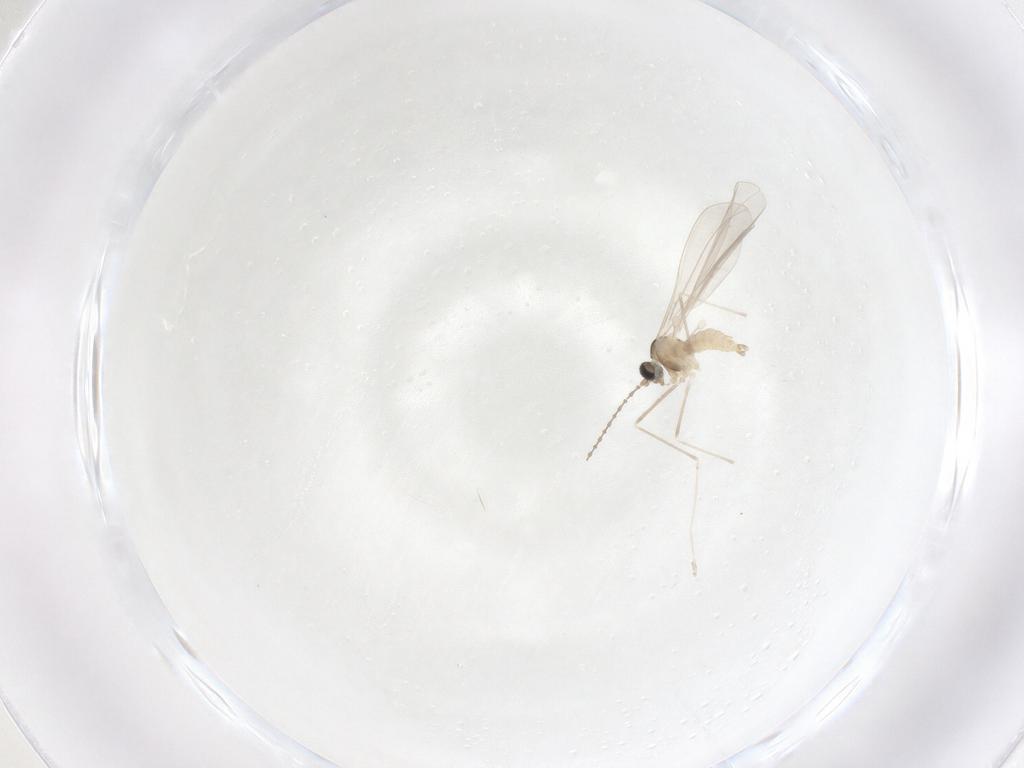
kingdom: Animalia
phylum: Arthropoda
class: Insecta
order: Diptera
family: Cecidomyiidae
